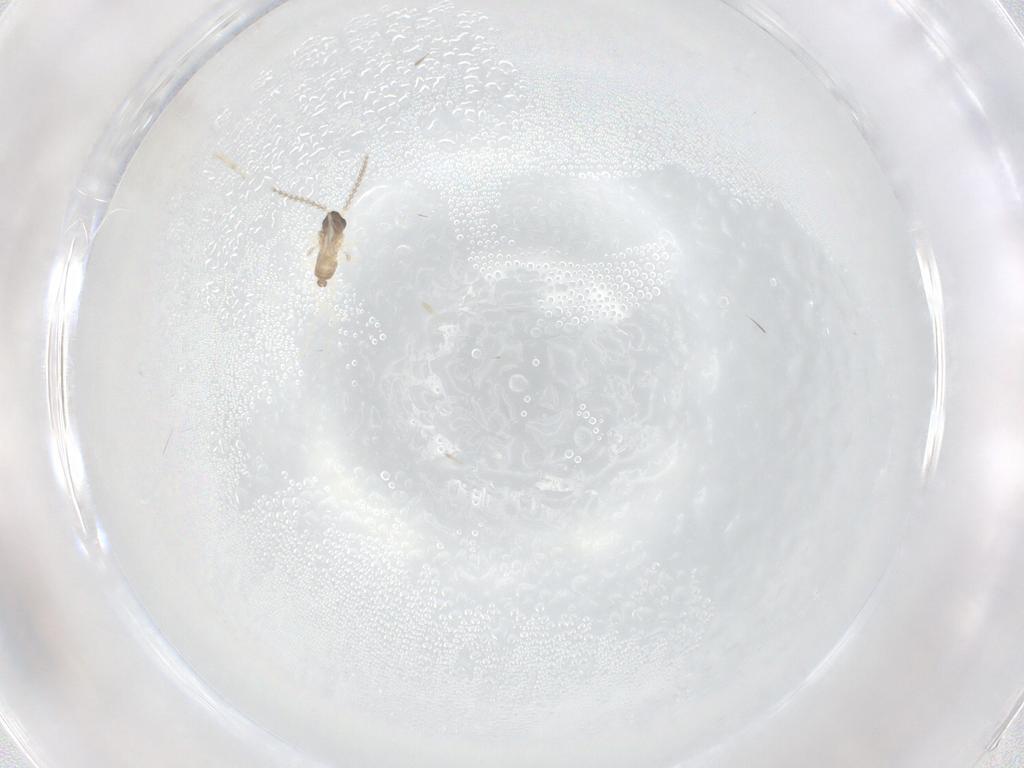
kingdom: Animalia
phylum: Arthropoda
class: Insecta
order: Diptera
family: Cecidomyiidae
